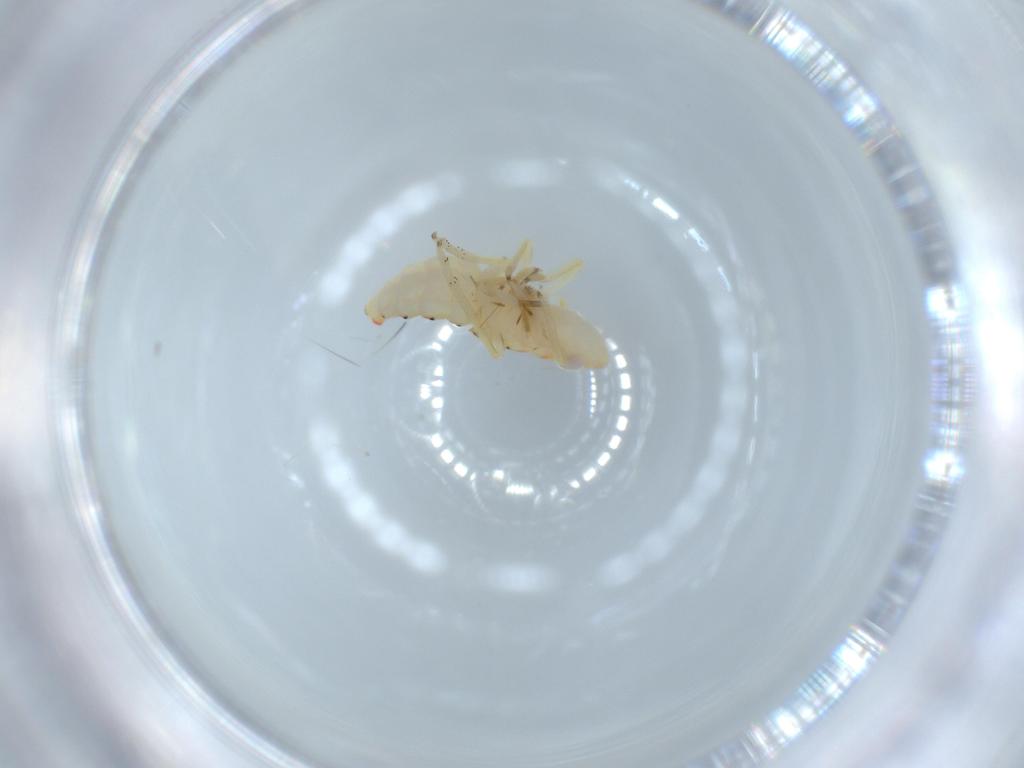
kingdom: Animalia
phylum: Arthropoda
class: Insecta
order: Hemiptera
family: Tropiduchidae
